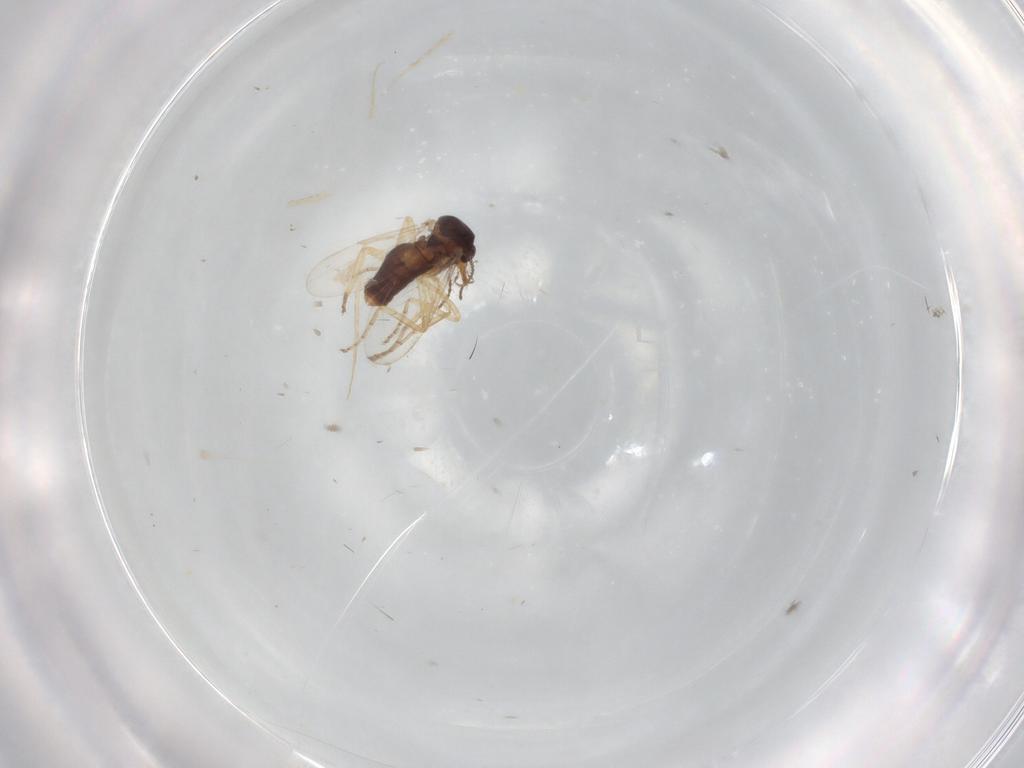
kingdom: Animalia
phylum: Arthropoda
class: Insecta
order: Diptera
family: Ceratopogonidae
